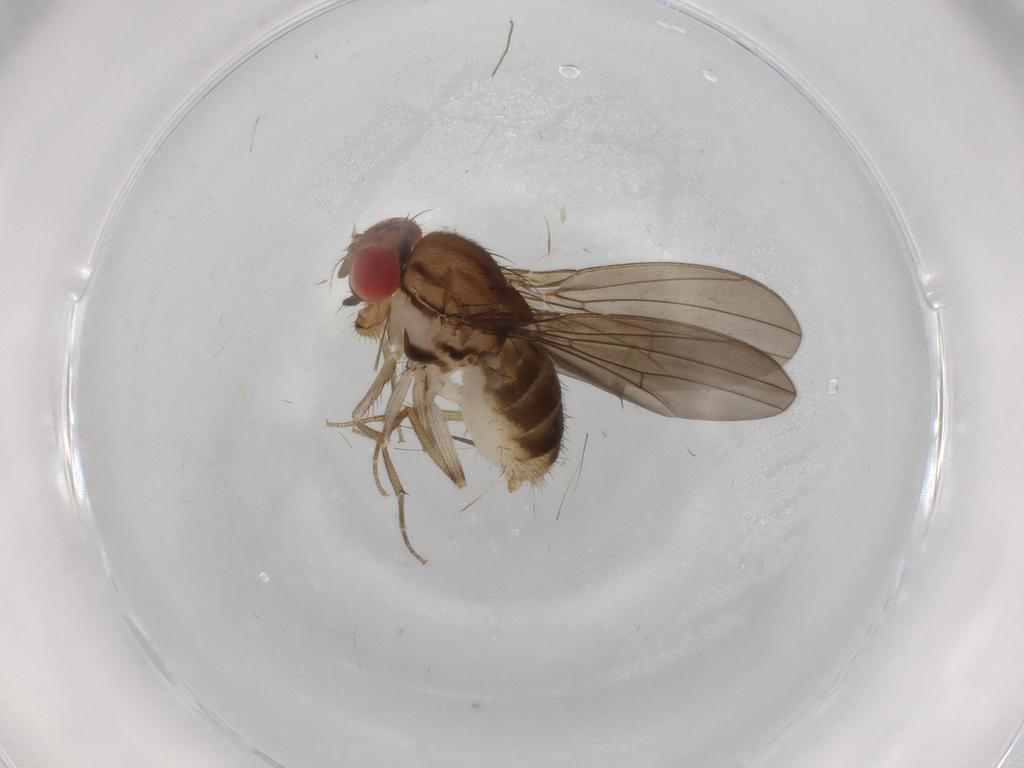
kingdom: Animalia
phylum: Arthropoda
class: Insecta
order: Diptera
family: Drosophilidae
